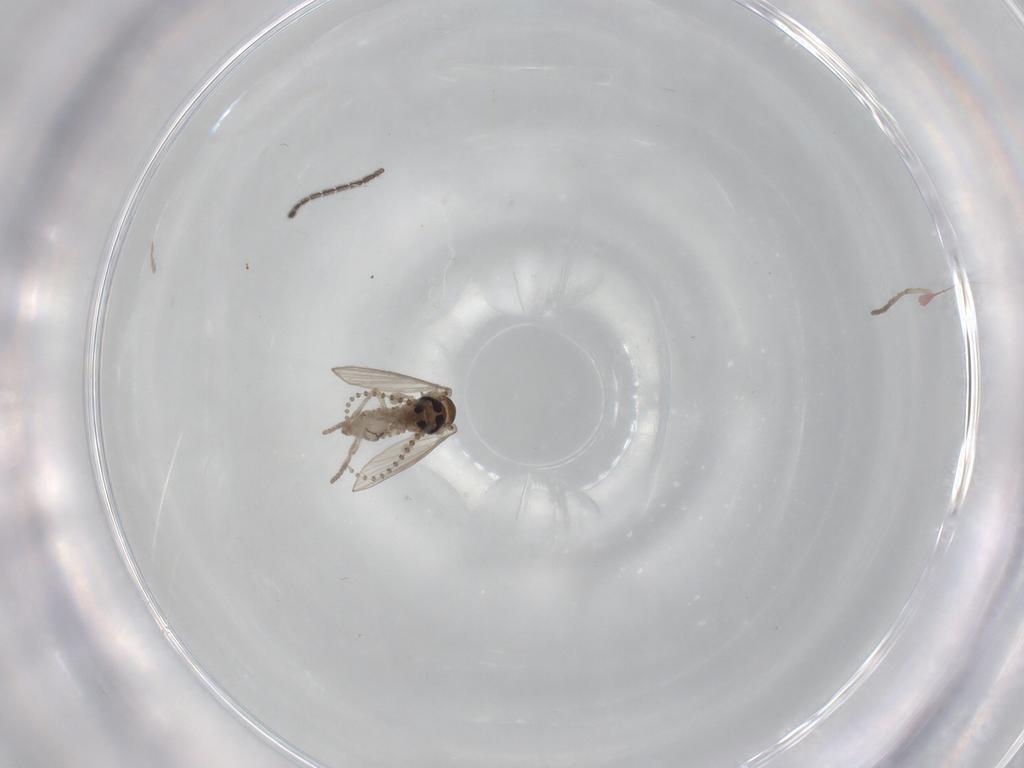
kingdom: Animalia
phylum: Arthropoda
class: Insecta
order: Diptera
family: Psychodidae
